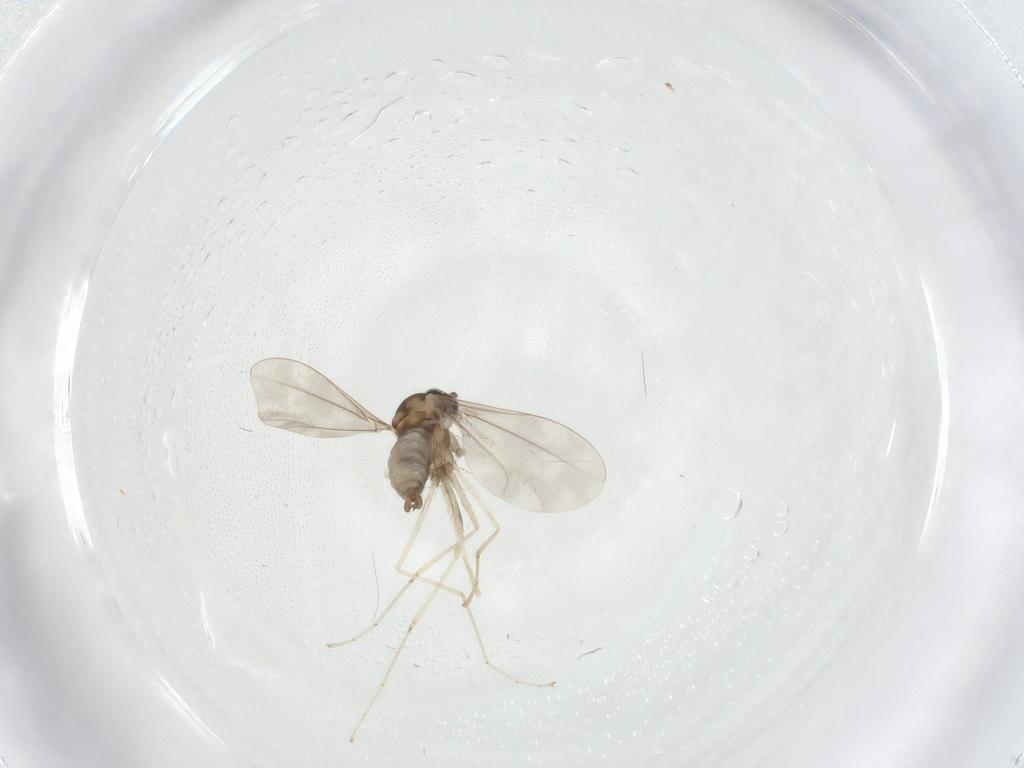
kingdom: Animalia
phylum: Arthropoda
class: Insecta
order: Diptera
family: Cecidomyiidae
